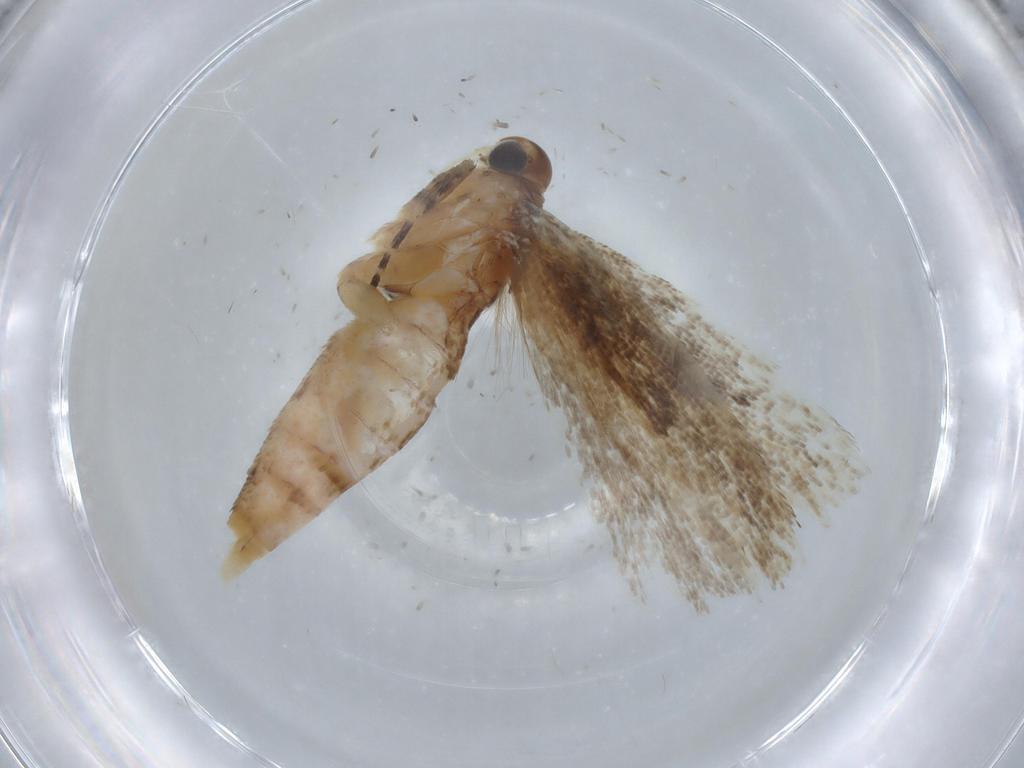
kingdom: Animalia
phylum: Arthropoda
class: Insecta
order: Lepidoptera
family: Gelechiidae
